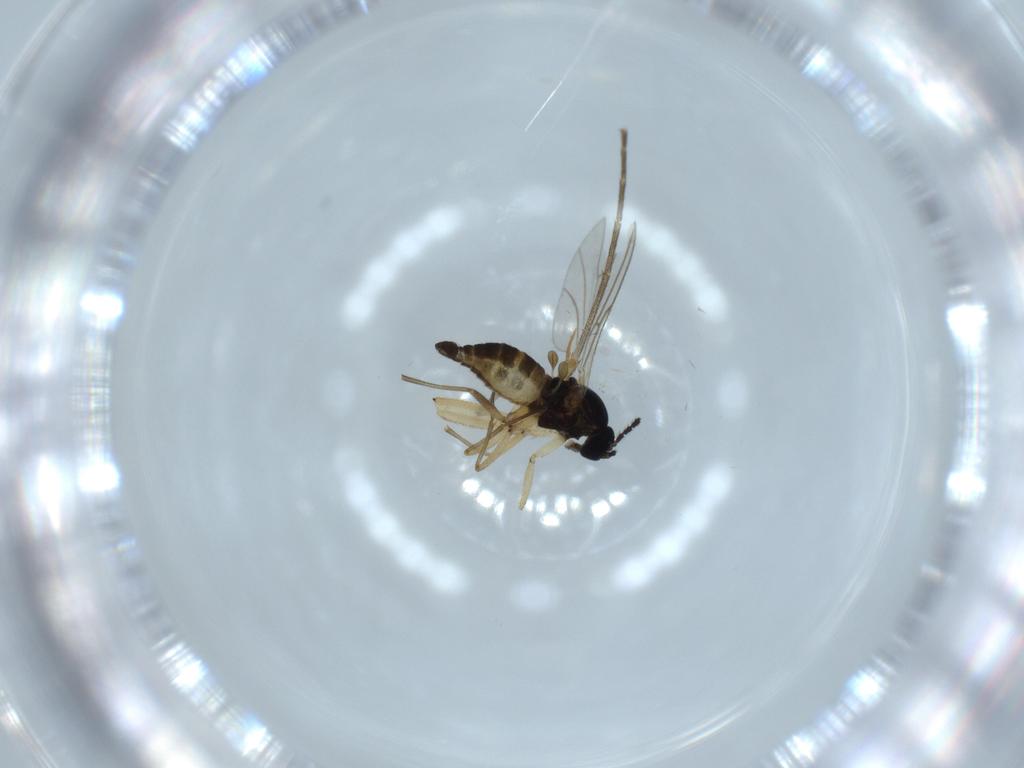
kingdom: Animalia
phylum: Arthropoda
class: Insecta
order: Diptera
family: Sciaridae
